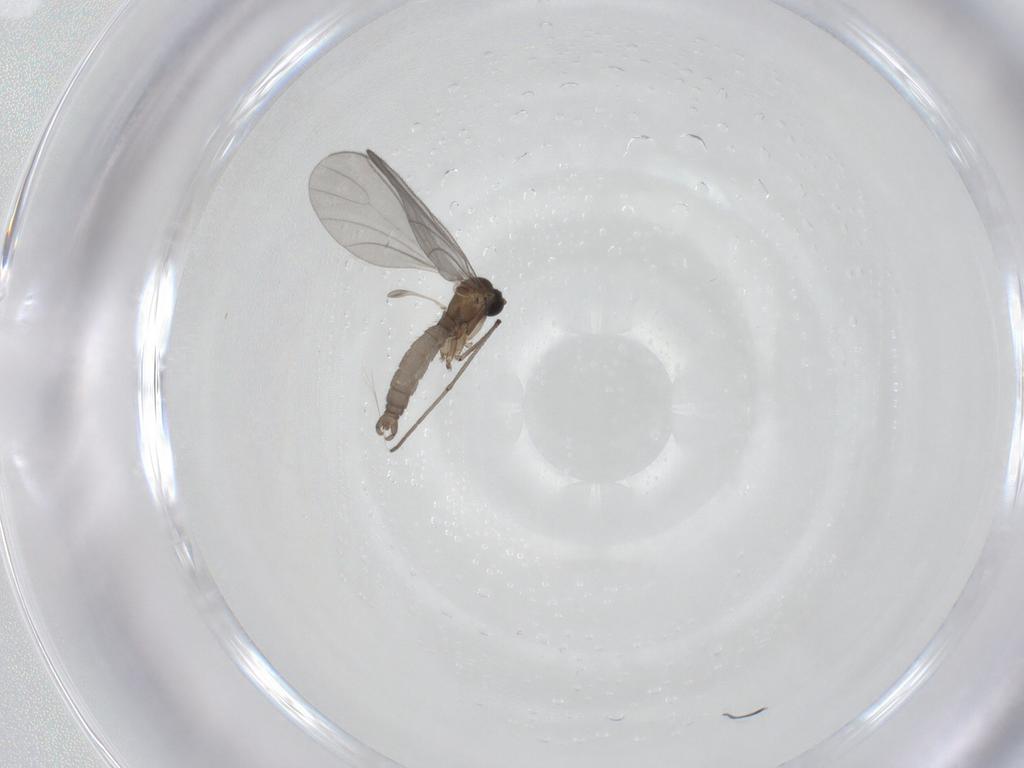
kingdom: Animalia
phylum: Arthropoda
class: Insecta
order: Diptera
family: Sciaridae
